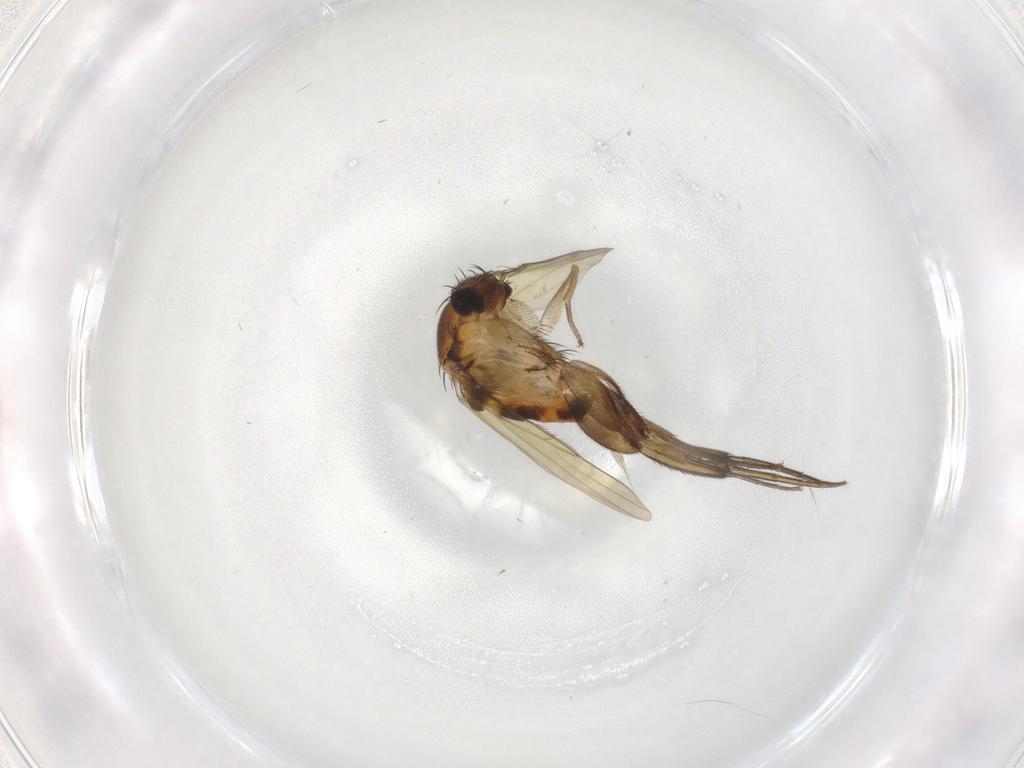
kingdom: Animalia
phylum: Arthropoda
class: Insecta
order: Diptera
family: Phoridae
